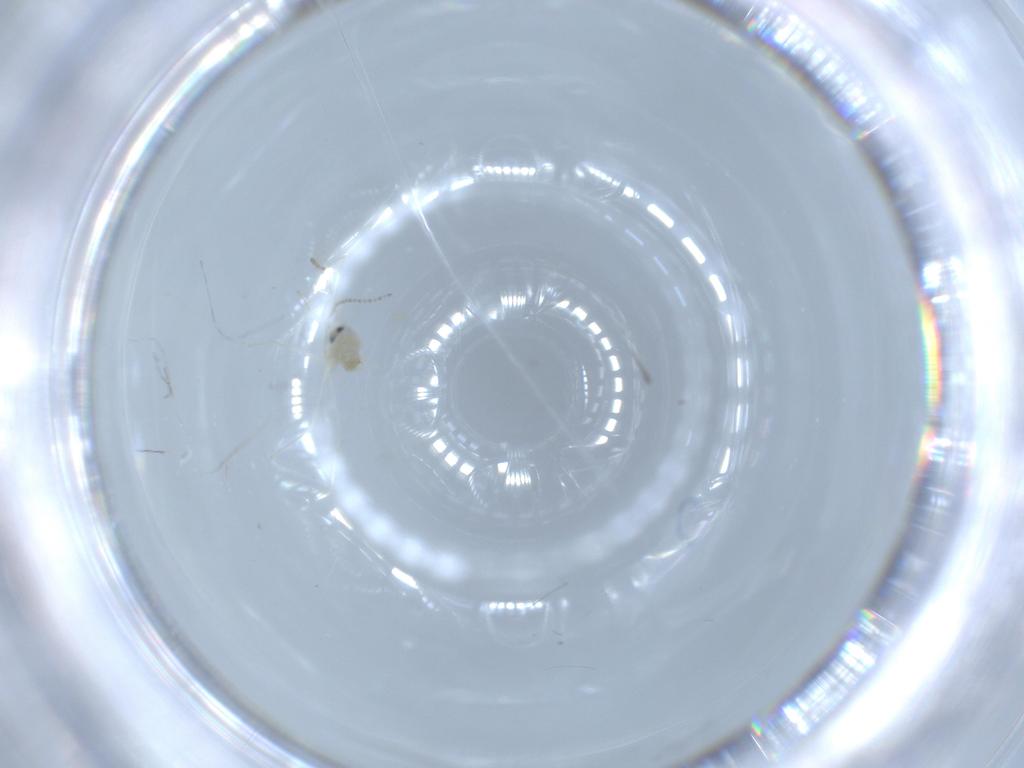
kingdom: Animalia
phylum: Arthropoda
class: Insecta
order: Diptera
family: Cecidomyiidae
